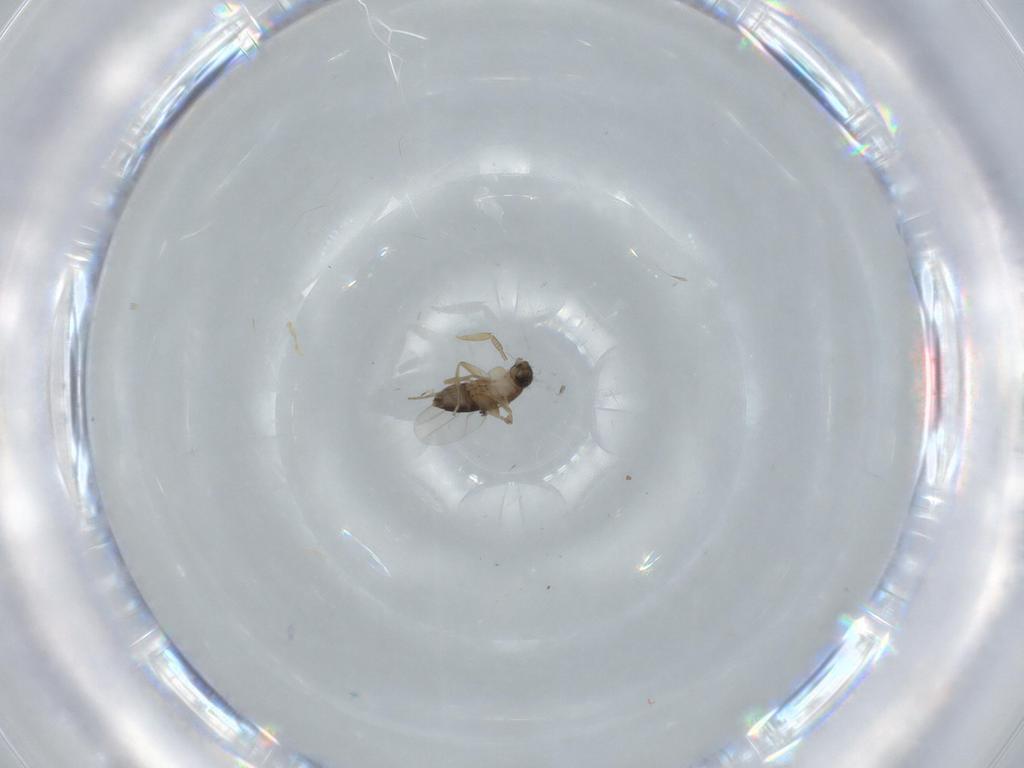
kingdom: Animalia
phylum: Arthropoda
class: Insecta
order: Diptera
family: Phoridae
